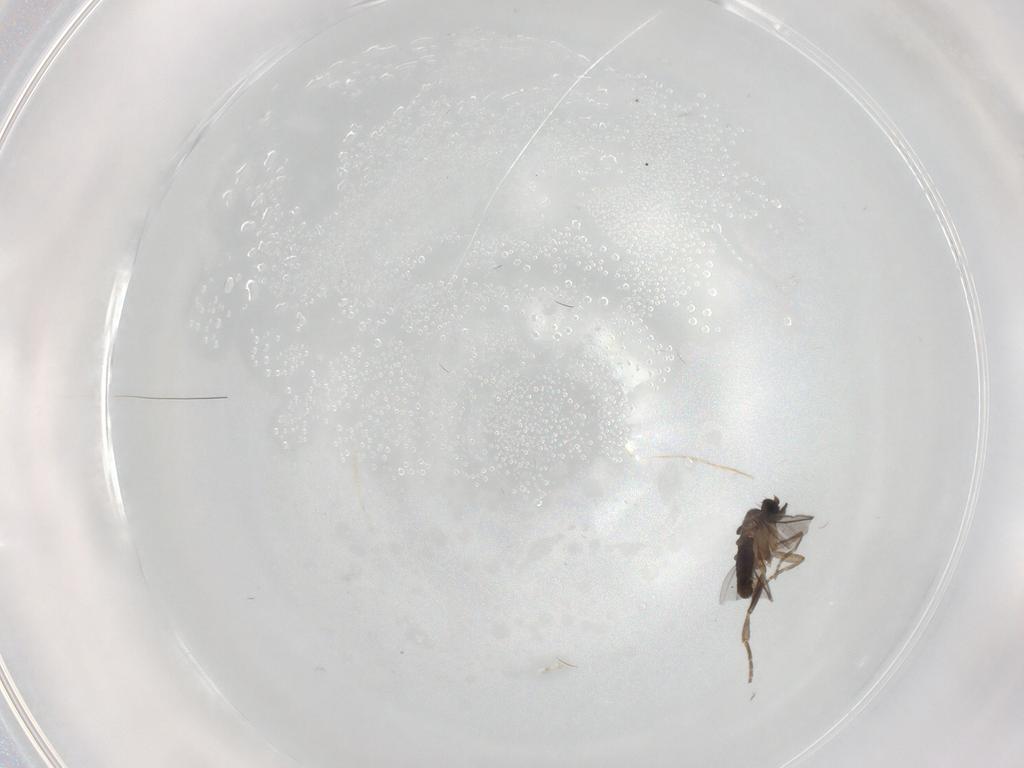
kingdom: Animalia
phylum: Arthropoda
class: Insecta
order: Diptera
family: Phoridae
